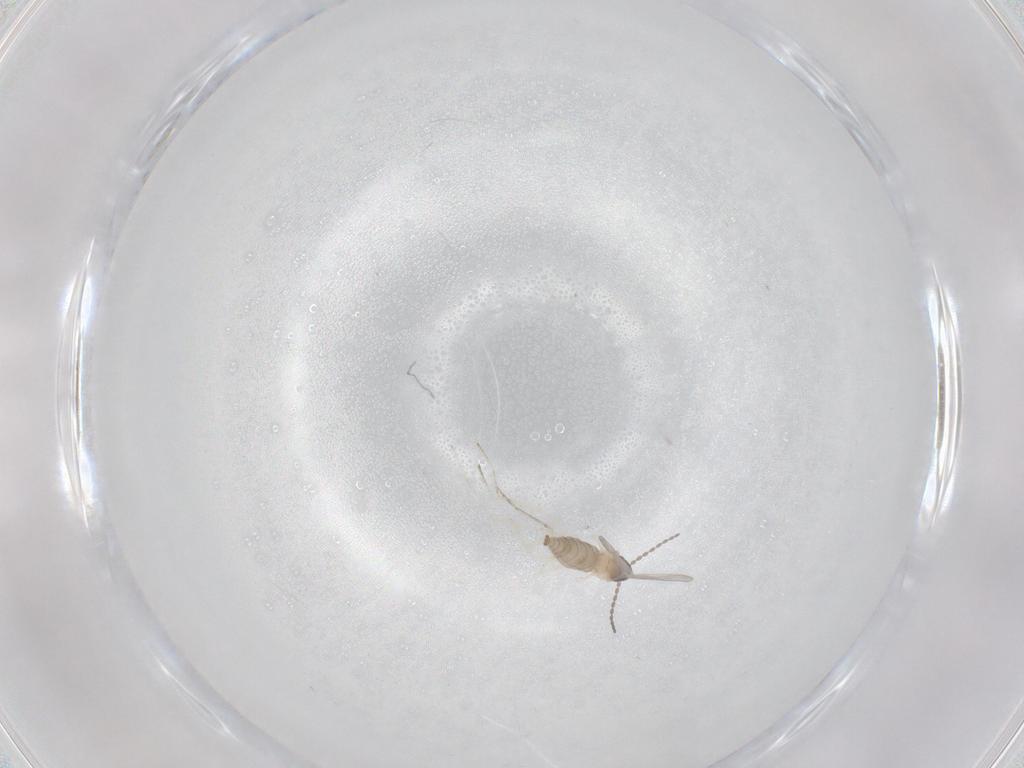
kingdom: Animalia
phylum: Arthropoda
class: Insecta
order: Diptera
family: Cecidomyiidae
